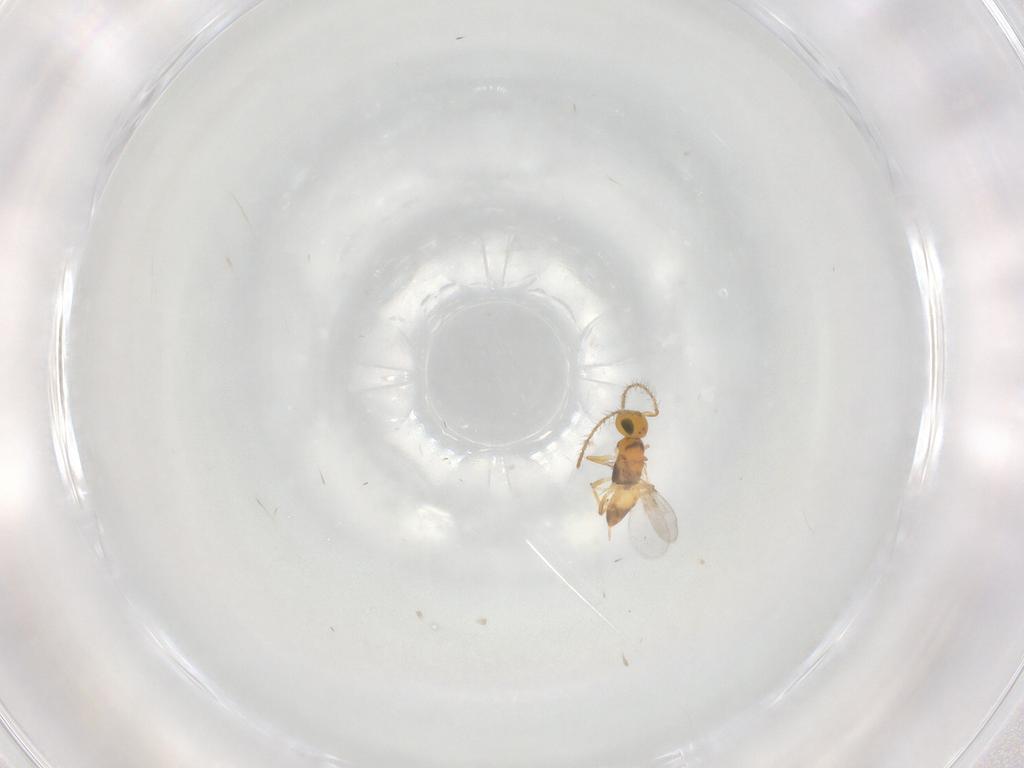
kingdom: Animalia
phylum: Arthropoda
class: Insecta
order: Hymenoptera
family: Encyrtidae
